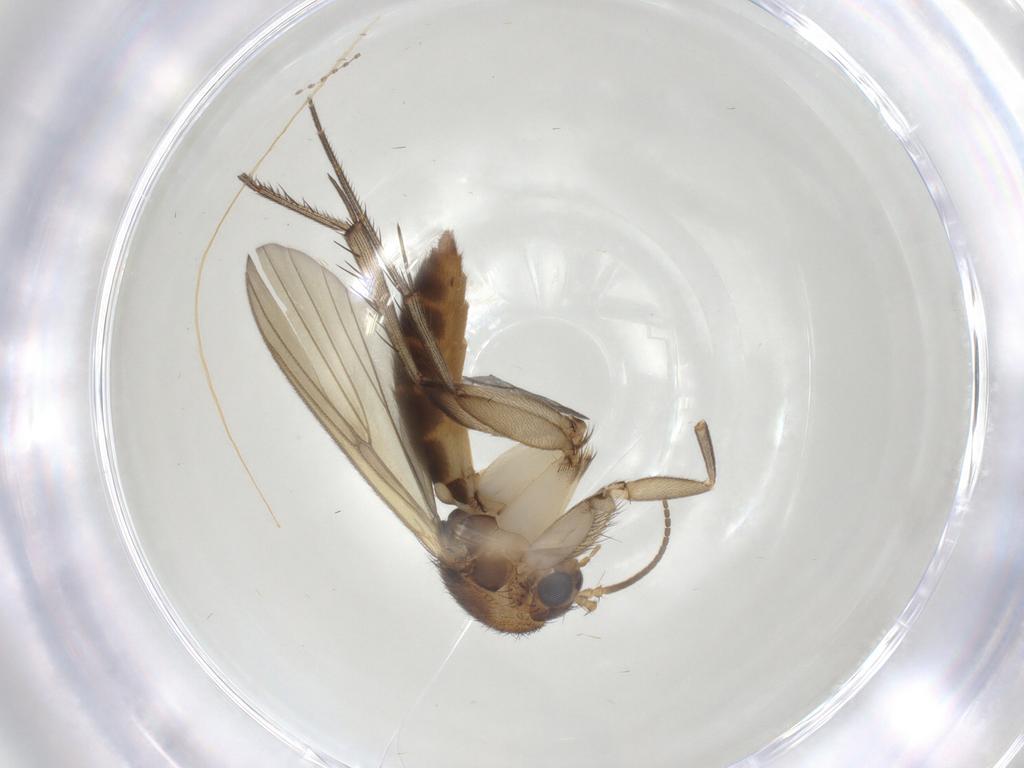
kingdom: Animalia
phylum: Arthropoda
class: Insecta
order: Diptera
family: Mycetophilidae
